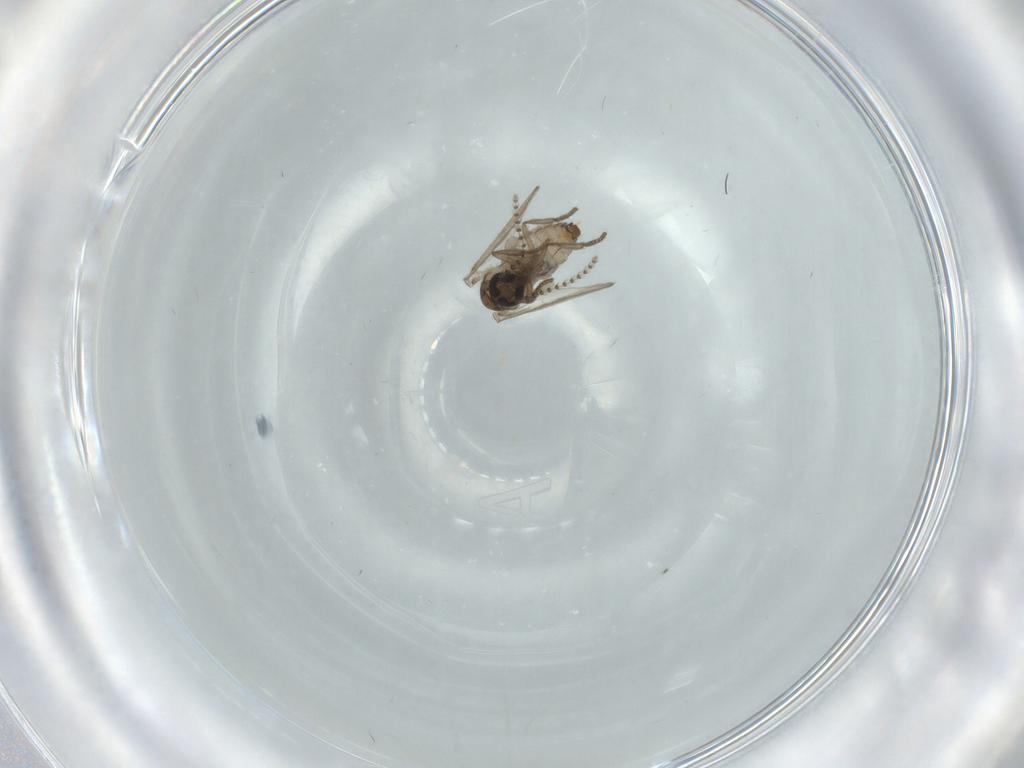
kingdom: Animalia
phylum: Arthropoda
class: Insecta
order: Diptera
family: Psychodidae
